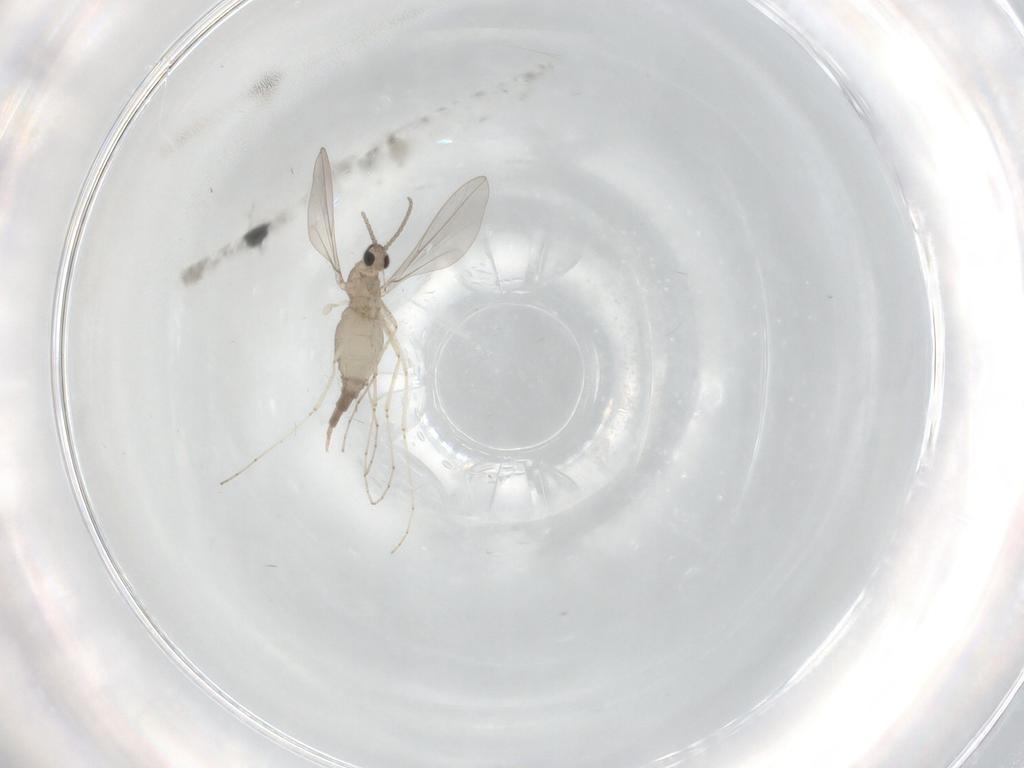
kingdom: Animalia
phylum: Arthropoda
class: Insecta
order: Diptera
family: Cecidomyiidae
